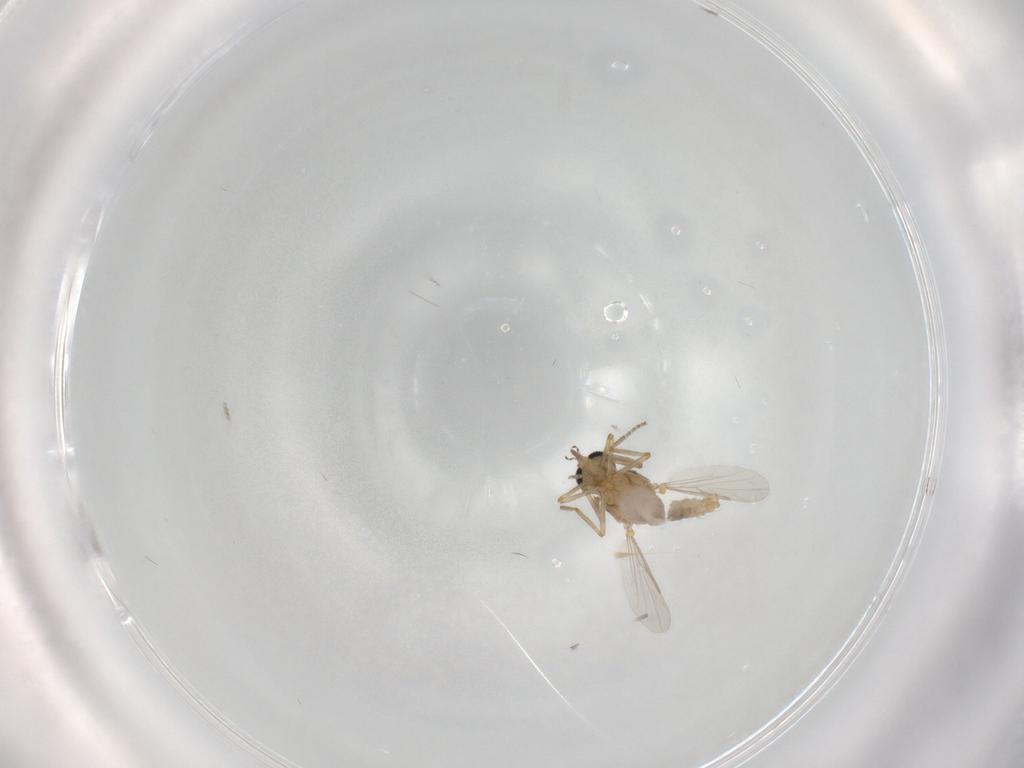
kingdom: Animalia
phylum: Arthropoda
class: Insecta
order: Diptera
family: Ceratopogonidae
